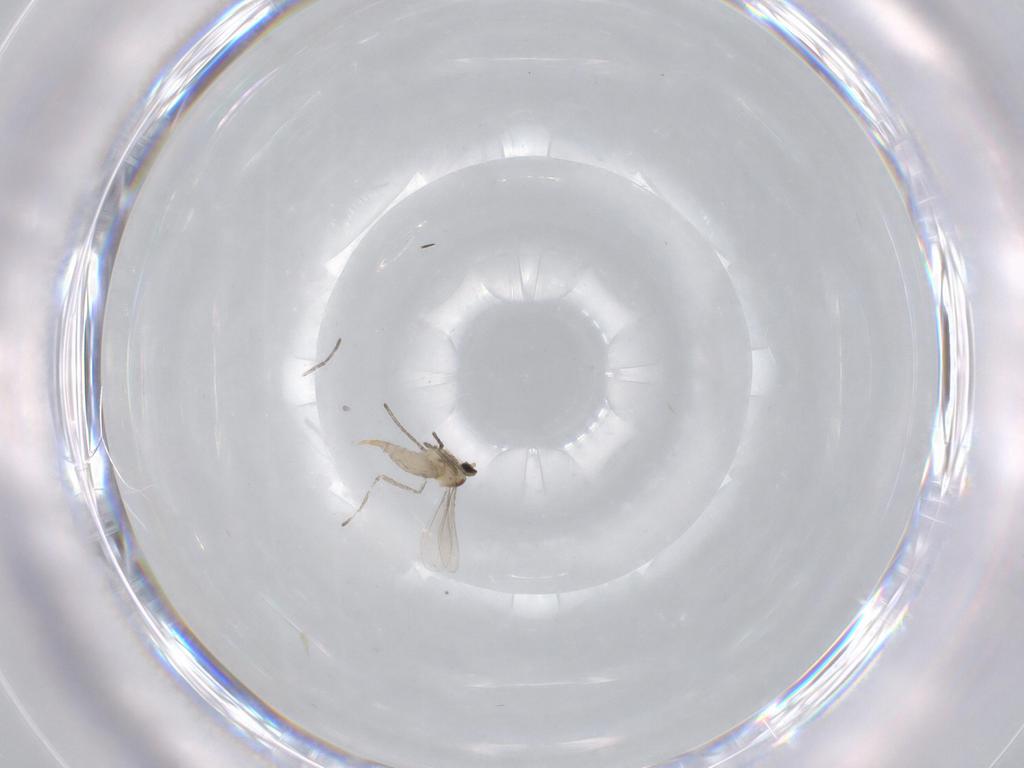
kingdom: Animalia
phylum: Arthropoda
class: Insecta
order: Diptera
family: Cecidomyiidae
